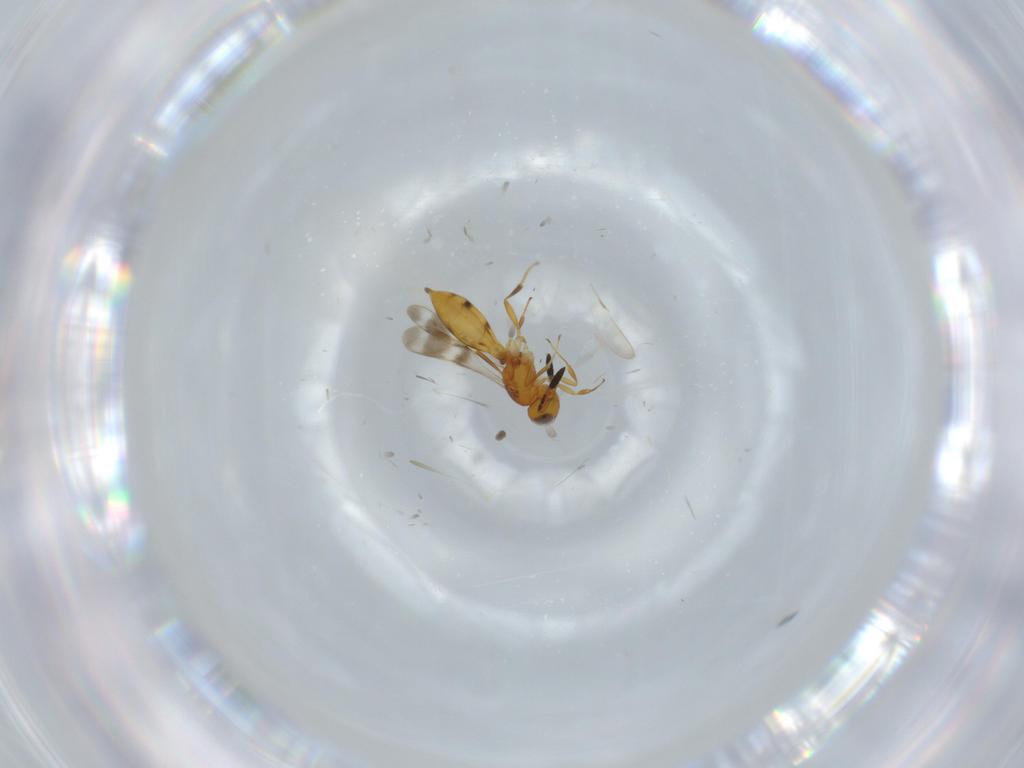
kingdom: Animalia
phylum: Arthropoda
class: Insecta
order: Hymenoptera
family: Scelionidae
